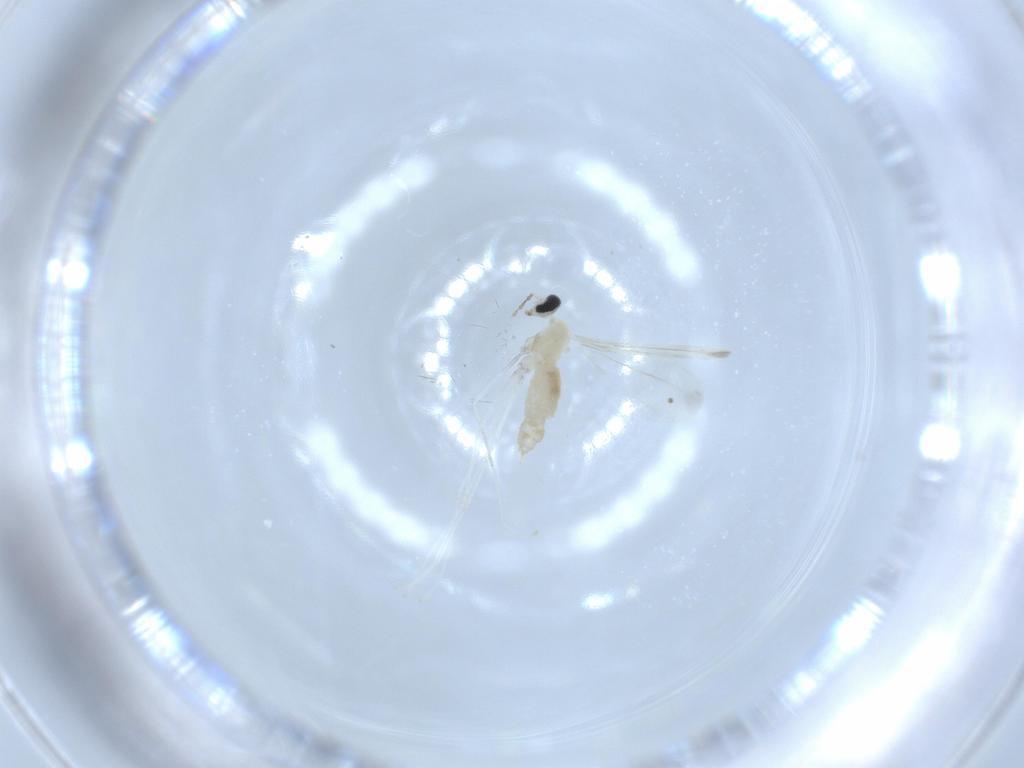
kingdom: Animalia
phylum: Arthropoda
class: Insecta
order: Diptera
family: Cecidomyiidae
